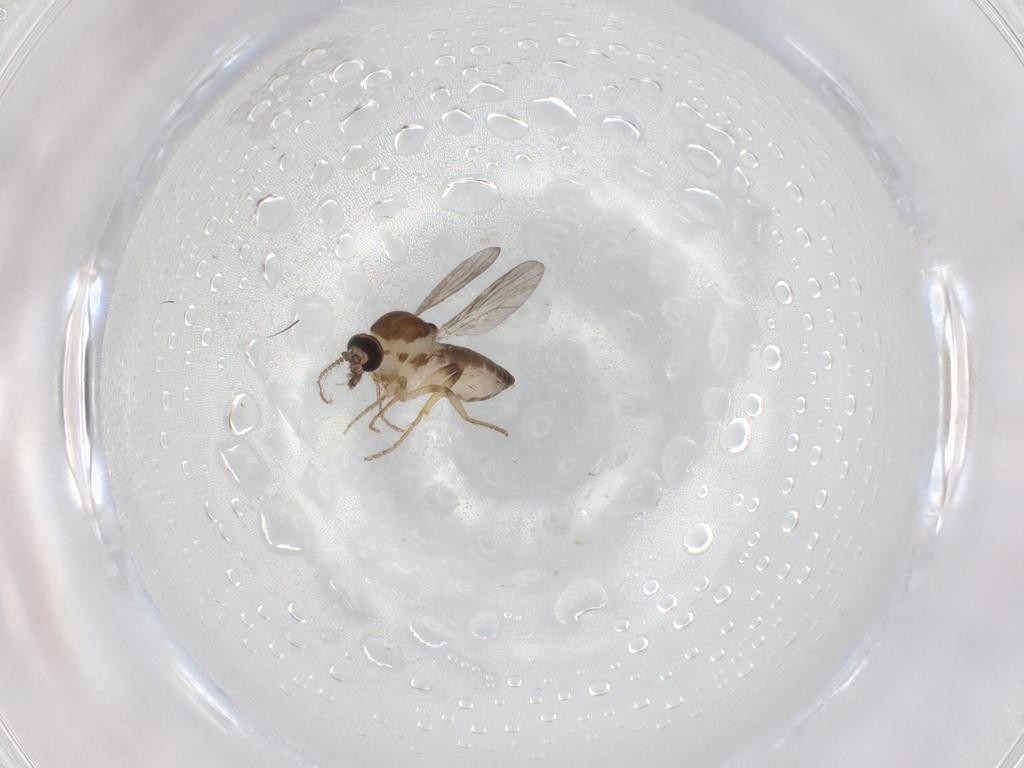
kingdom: Animalia
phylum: Arthropoda
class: Insecta
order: Diptera
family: Ceratopogonidae
